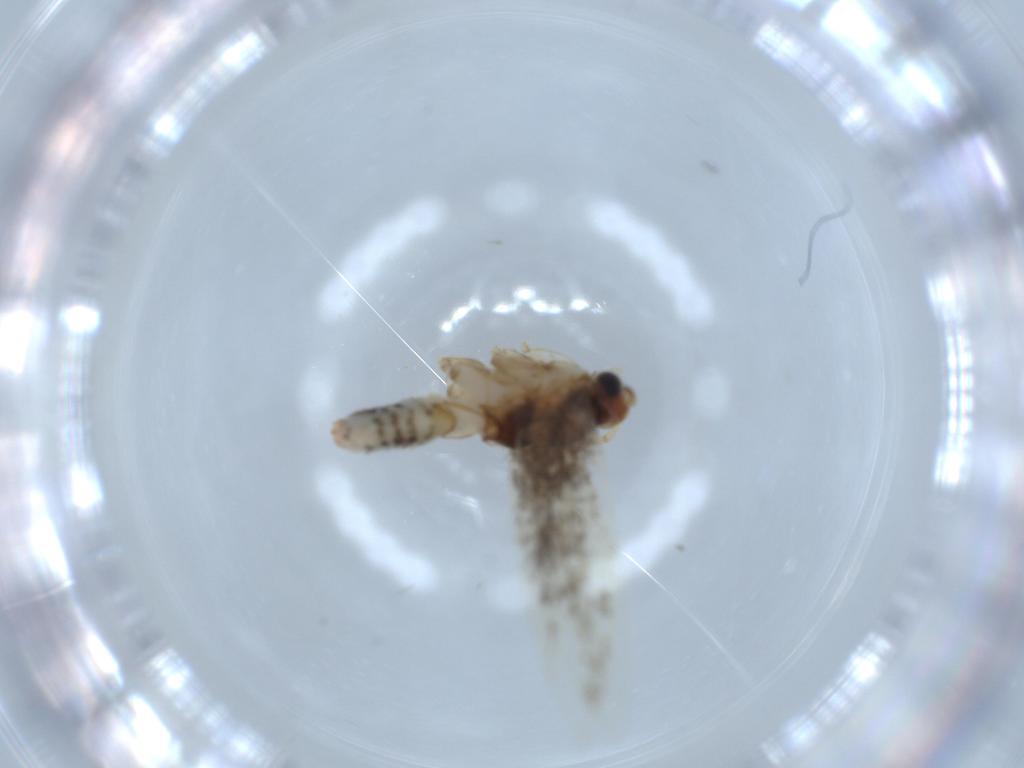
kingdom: Animalia
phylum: Arthropoda
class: Insecta
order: Lepidoptera
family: Tineidae
